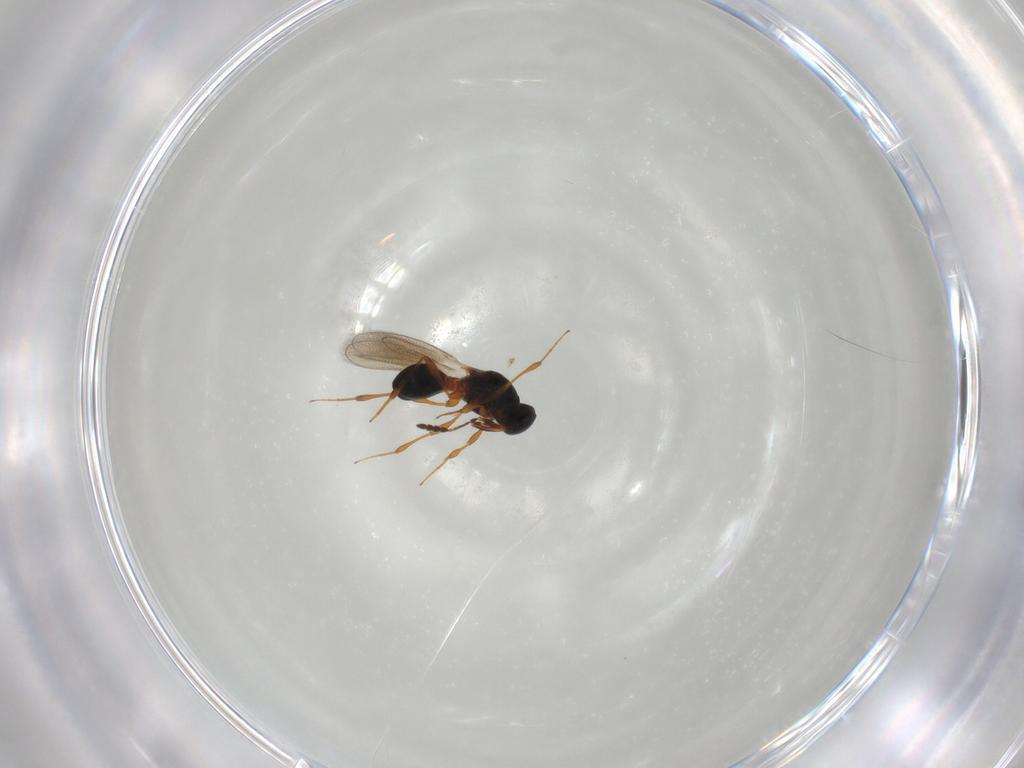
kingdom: Animalia
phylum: Arthropoda
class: Insecta
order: Hymenoptera
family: Braconidae
